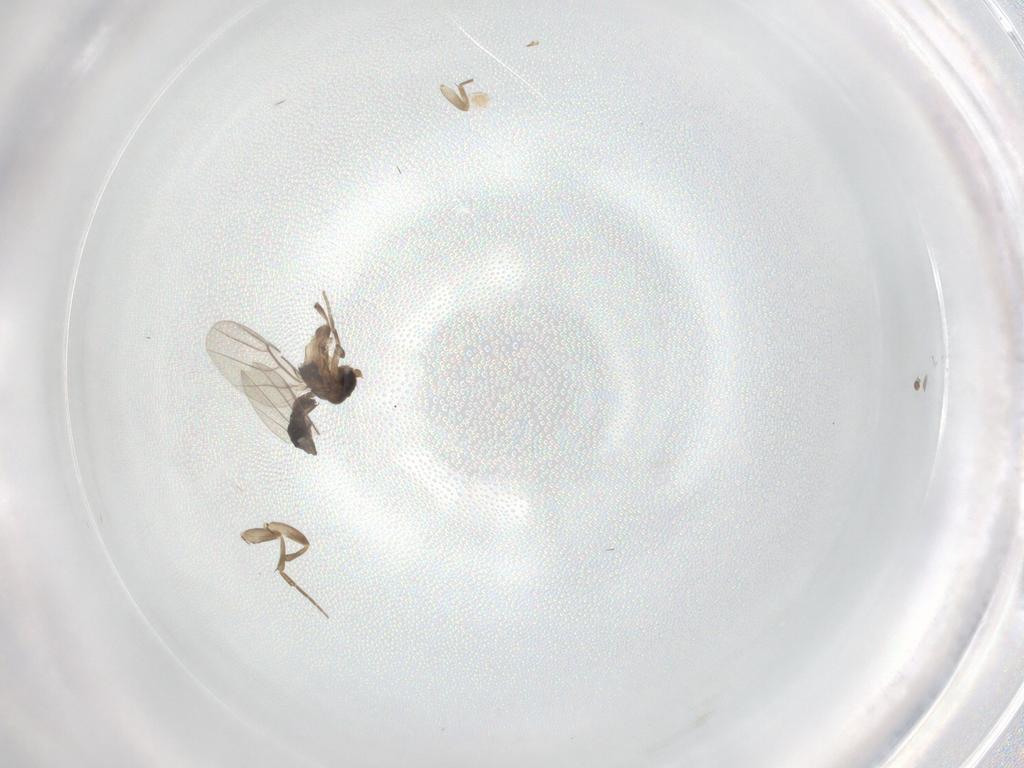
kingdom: Animalia
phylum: Arthropoda
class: Insecta
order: Diptera
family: Phoridae
